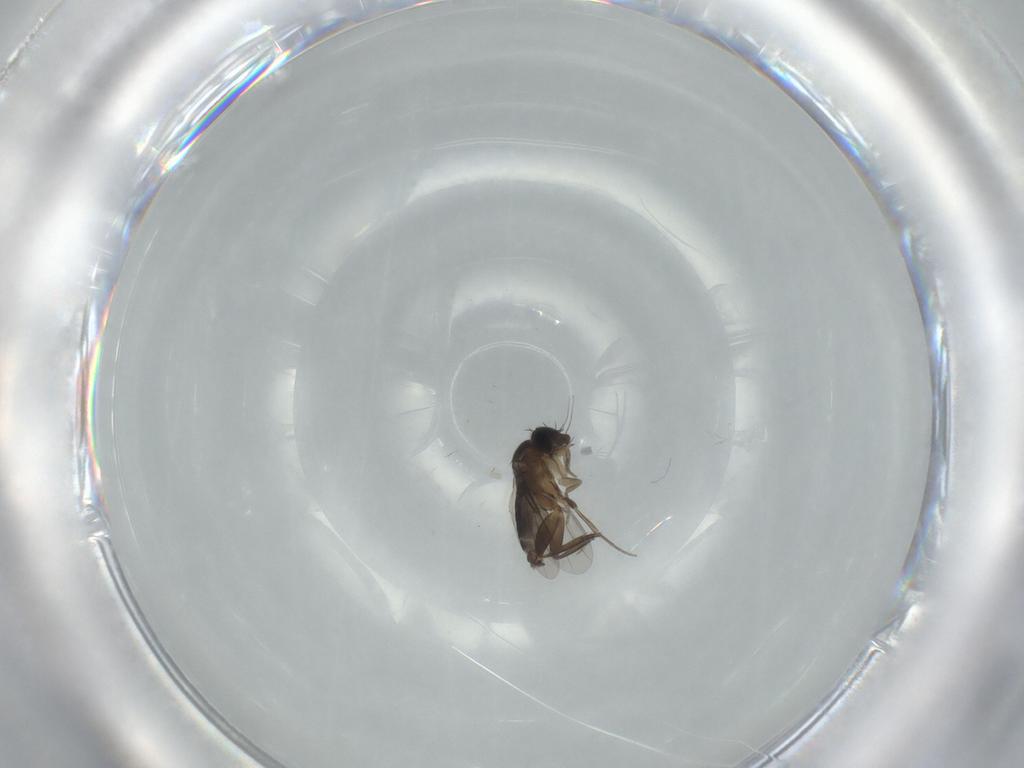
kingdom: Animalia
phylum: Arthropoda
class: Insecta
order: Diptera
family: Phoridae
